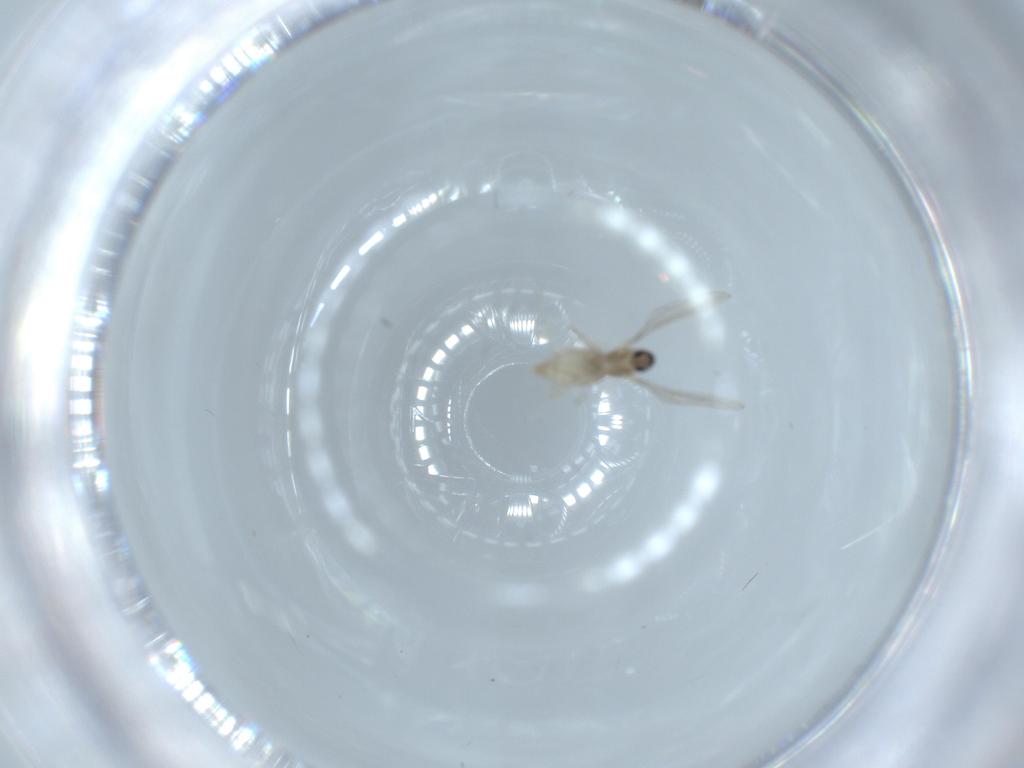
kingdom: Animalia
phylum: Arthropoda
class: Insecta
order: Diptera
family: Cecidomyiidae
